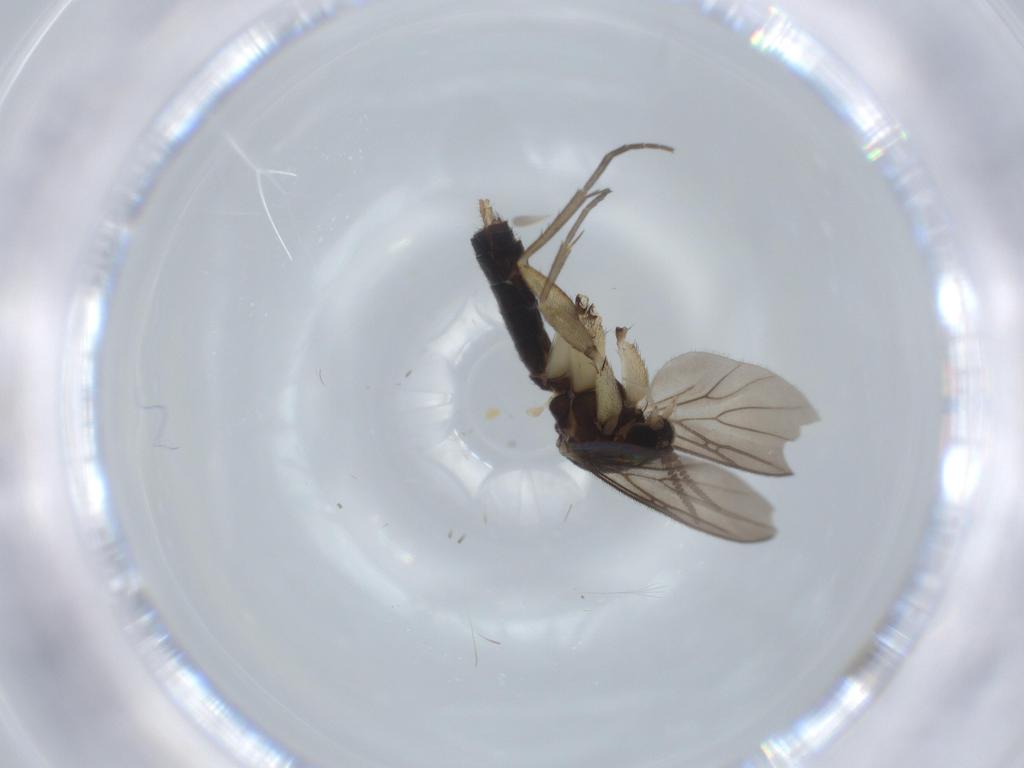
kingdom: Animalia
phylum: Arthropoda
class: Insecta
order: Diptera
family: Mycetophilidae
